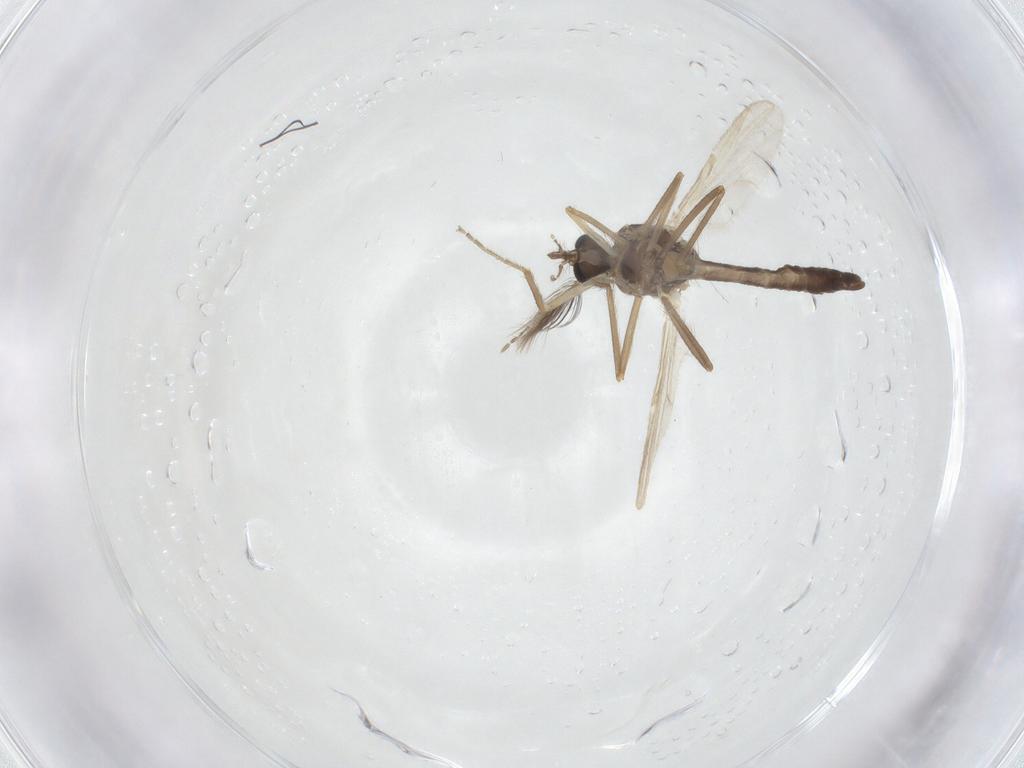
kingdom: Animalia
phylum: Arthropoda
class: Insecta
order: Diptera
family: Ceratopogonidae
